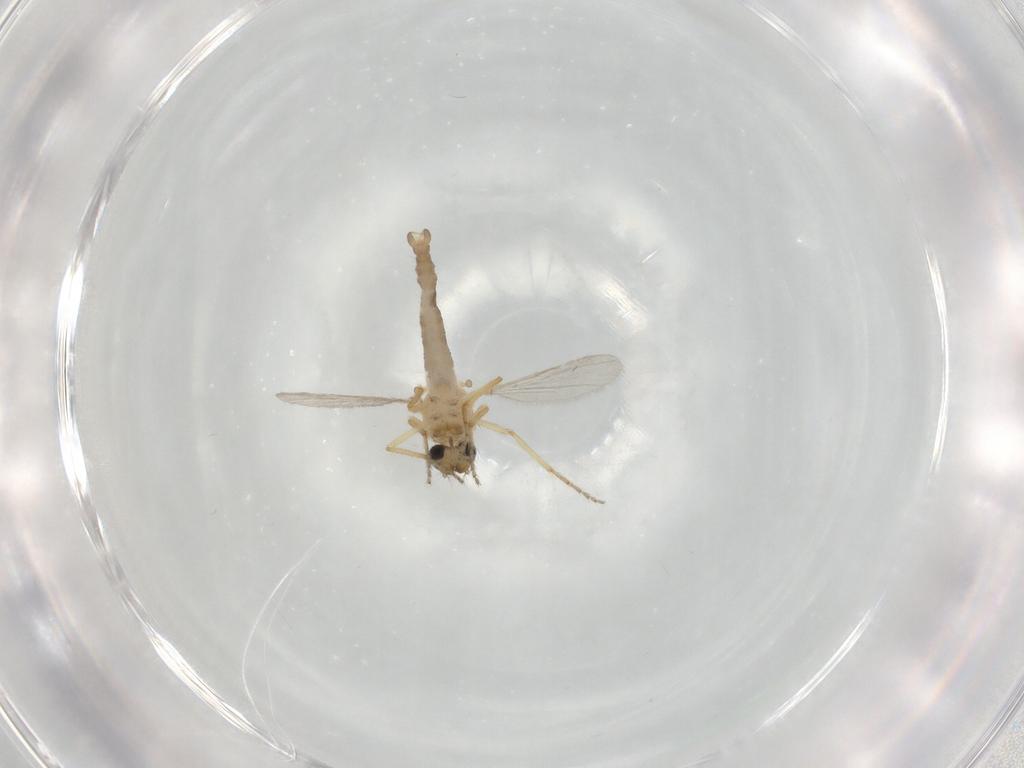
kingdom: Animalia
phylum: Arthropoda
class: Insecta
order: Diptera
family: Ceratopogonidae
